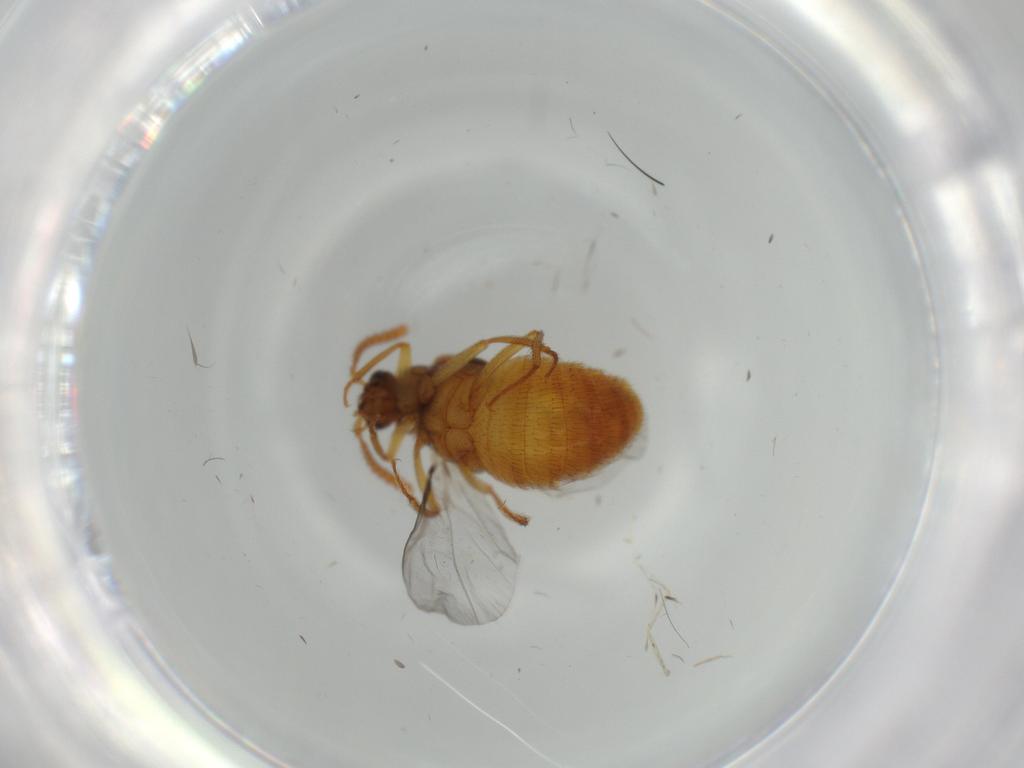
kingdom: Animalia
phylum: Arthropoda
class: Insecta
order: Coleoptera
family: Staphylinidae
